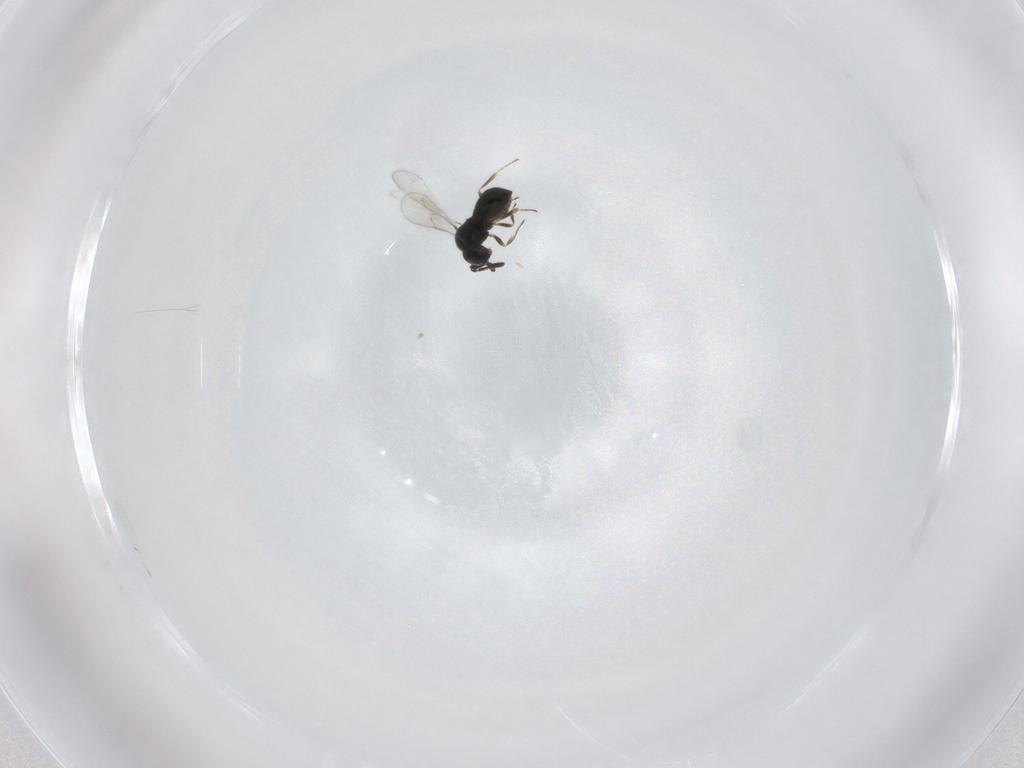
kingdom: Animalia
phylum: Arthropoda
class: Insecta
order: Hymenoptera
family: Scelionidae
